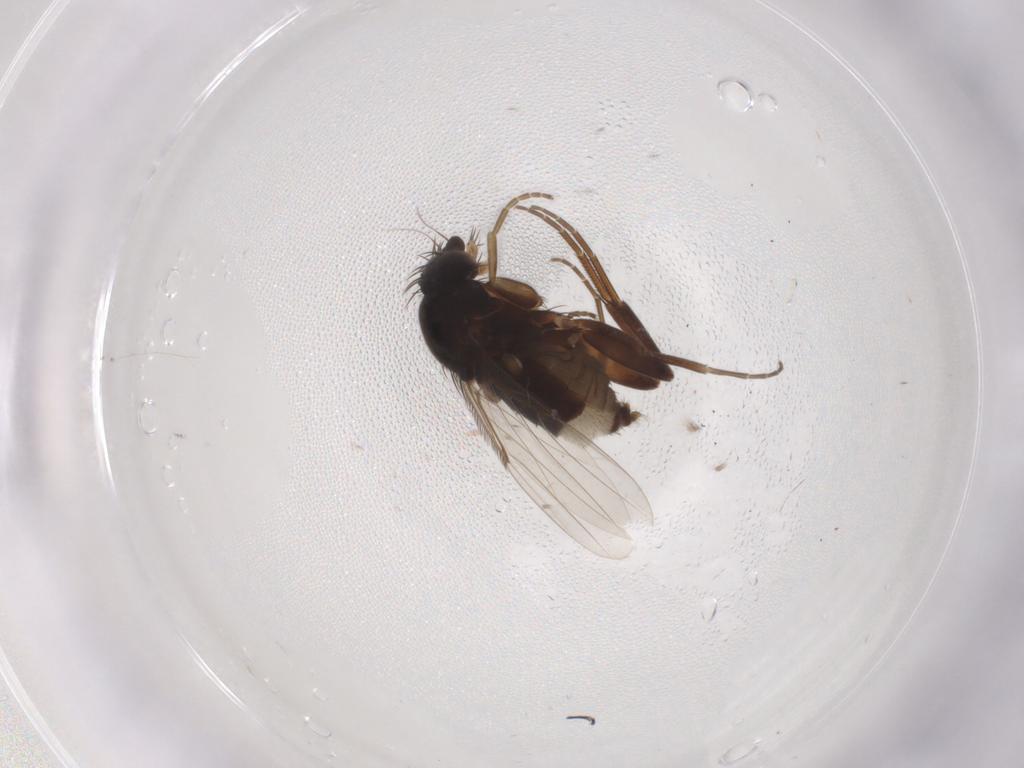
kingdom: Animalia
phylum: Arthropoda
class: Insecta
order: Diptera
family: Phoridae
